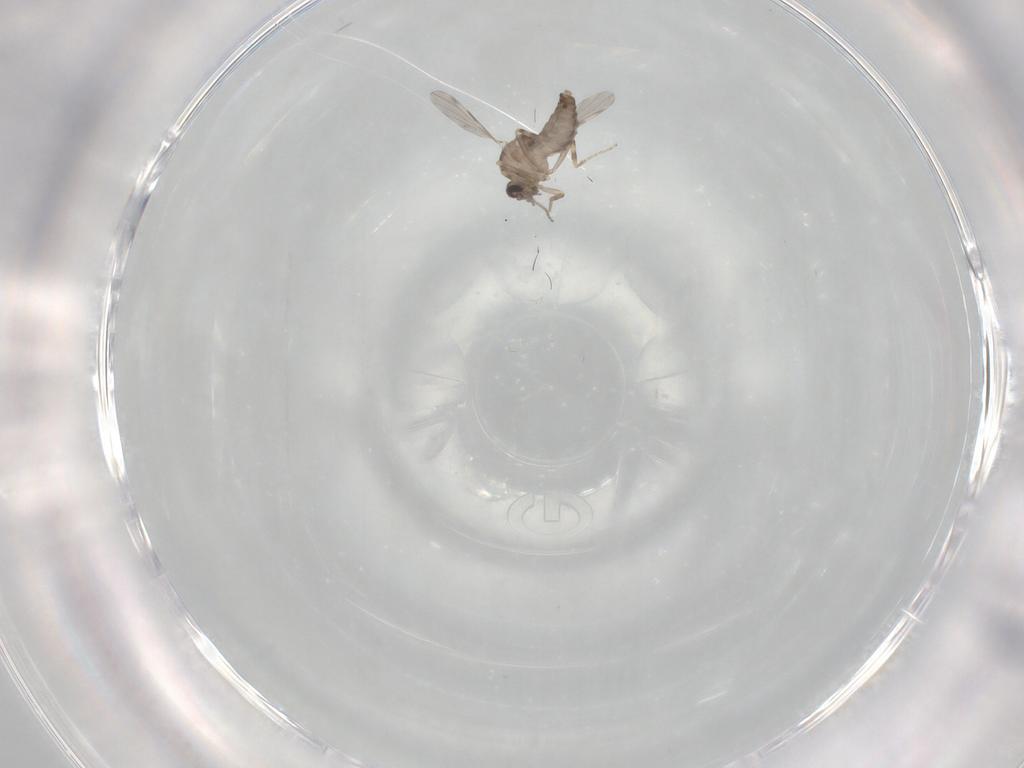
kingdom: Animalia
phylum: Arthropoda
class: Insecta
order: Diptera
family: Ceratopogonidae
